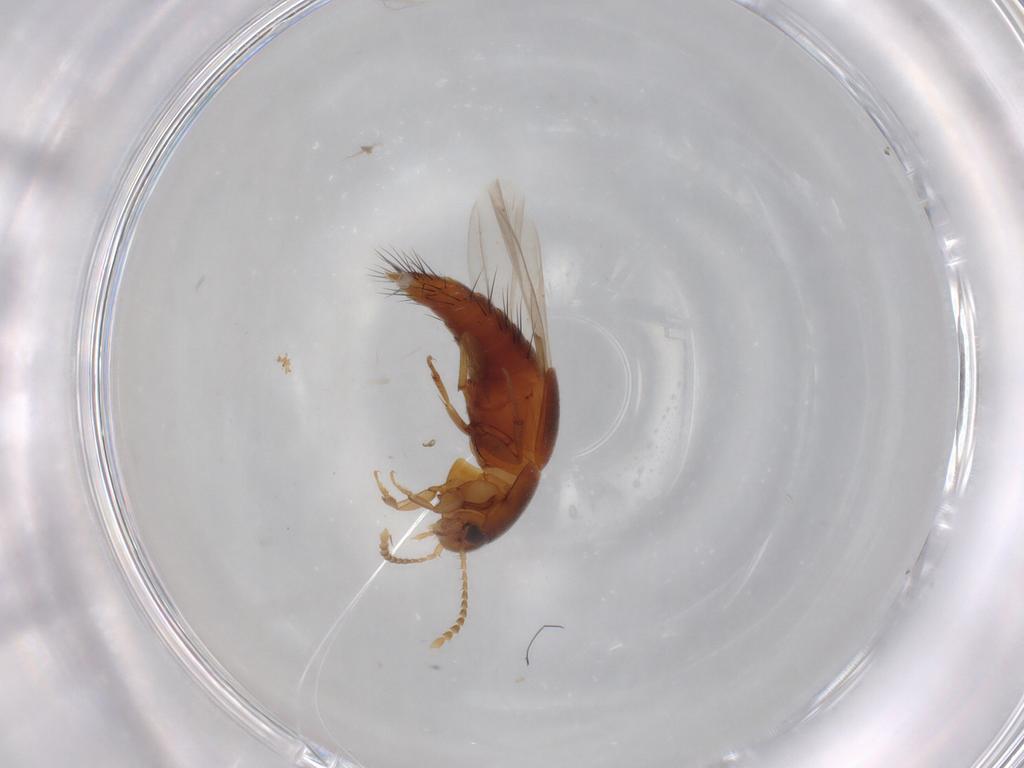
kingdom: Animalia
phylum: Arthropoda
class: Insecta
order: Coleoptera
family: Staphylinidae
